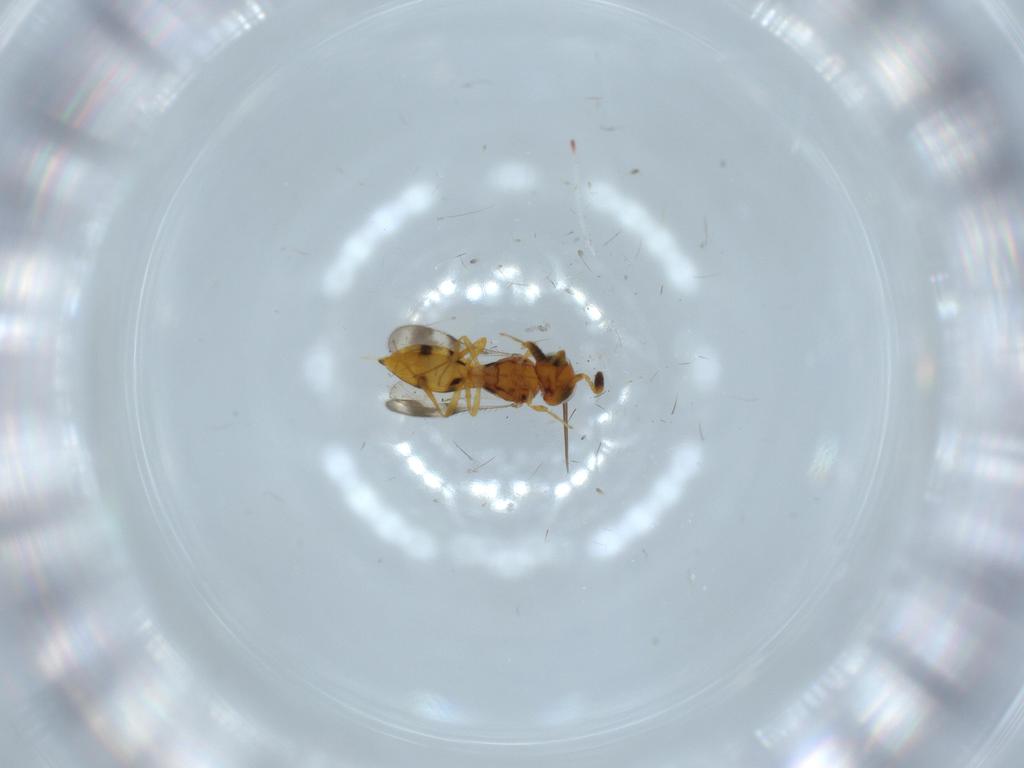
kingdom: Animalia
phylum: Arthropoda
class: Insecta
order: Hymenoptera
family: Scelionidae
